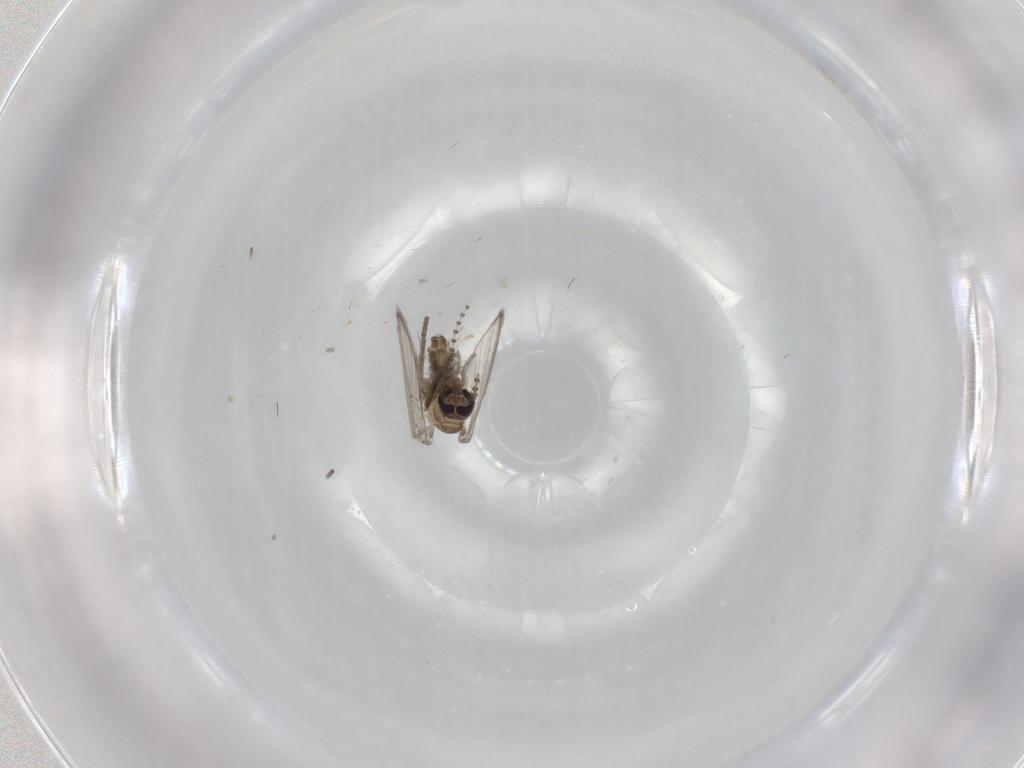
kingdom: Animalia
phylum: Arthropoda
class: Insecta
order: Diptera
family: Psychodidae
